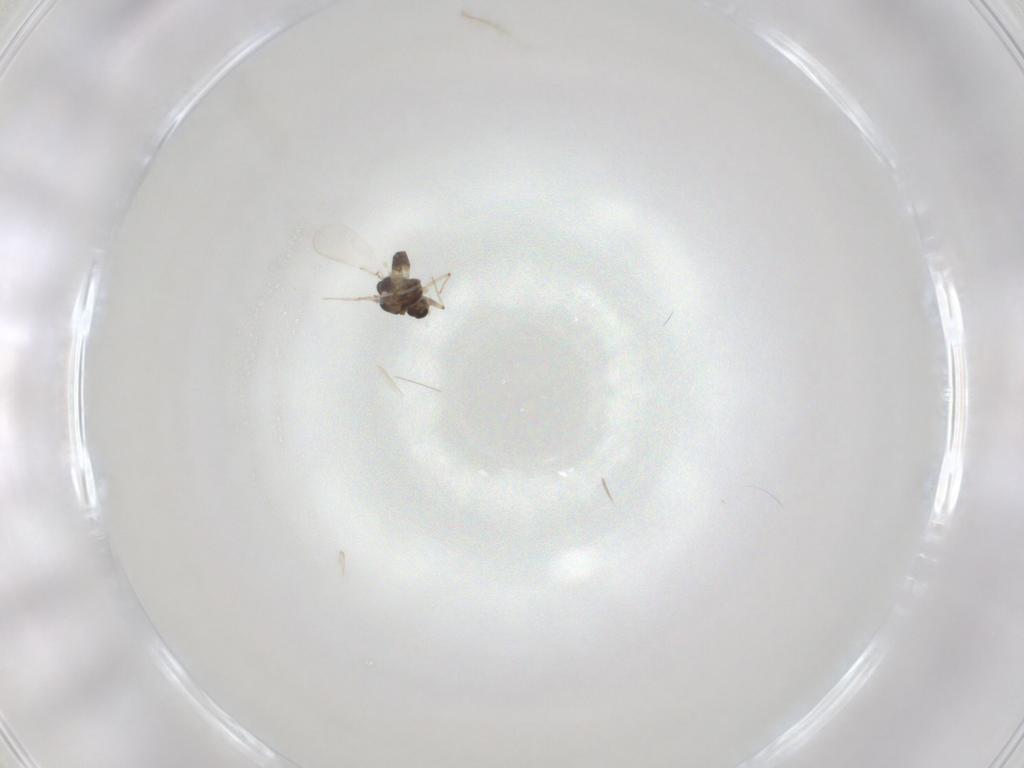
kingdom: Animalia
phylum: Arthropoda
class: Insecta
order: Diptera
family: Chironomidae
